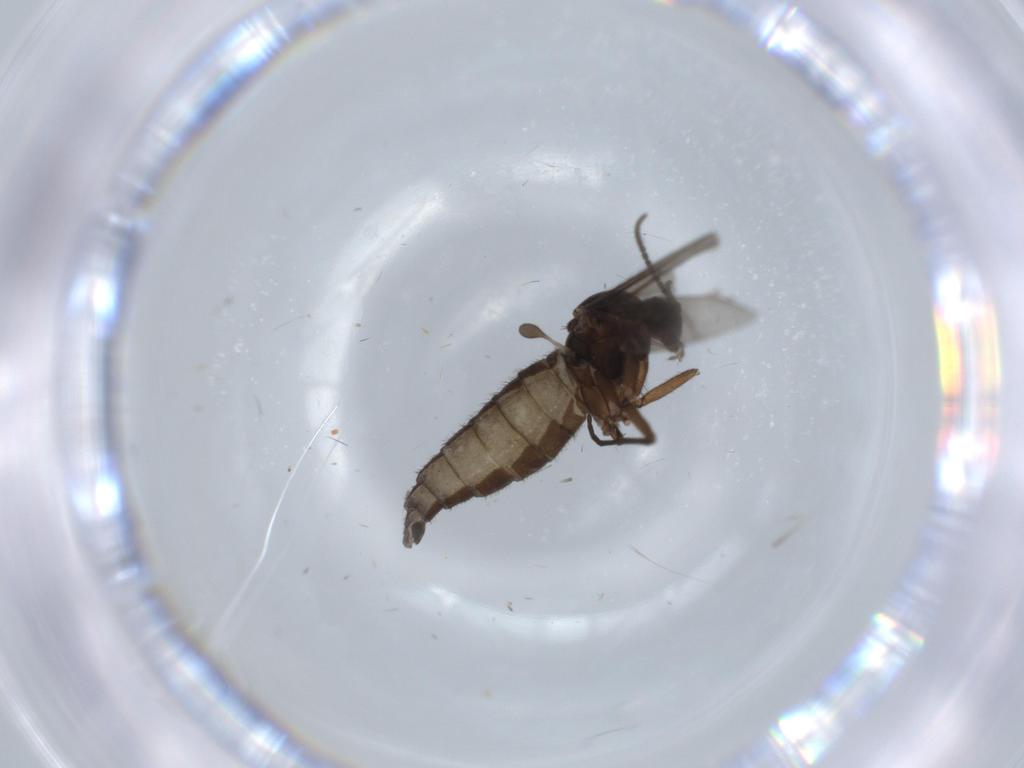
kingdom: Animalia
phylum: Arthropoda
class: Insecta
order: Diptera
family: Sciaridae
